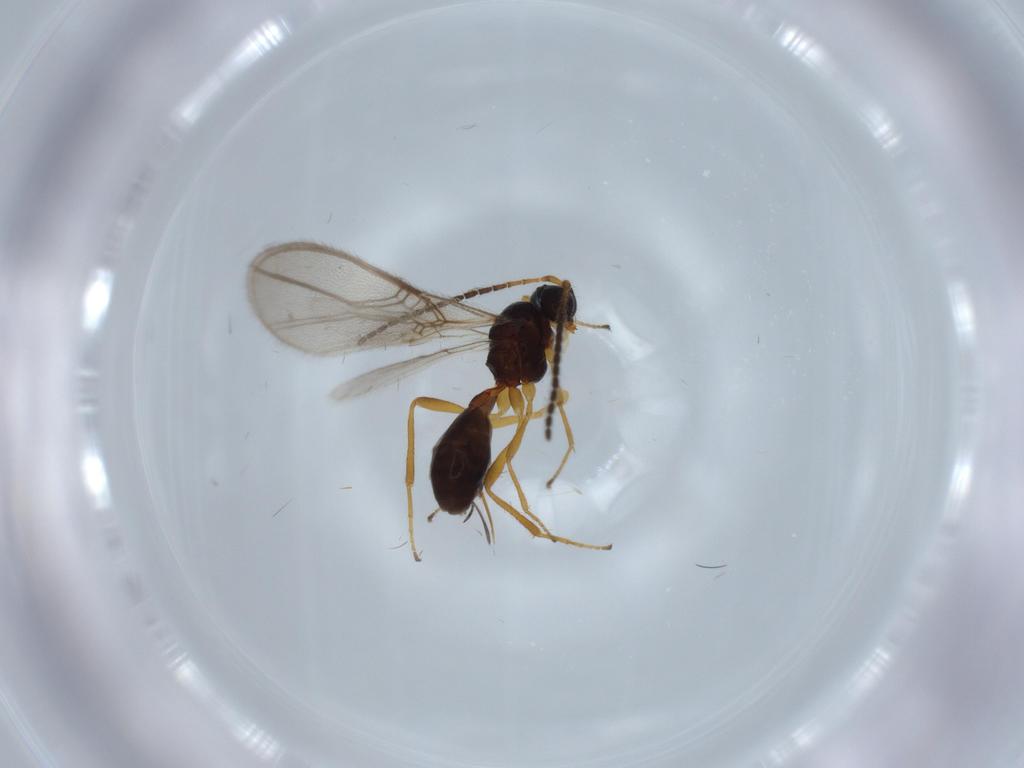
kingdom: Animalia
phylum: Arthropoda
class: Insecta
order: Hymenoptera
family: Braconidae
